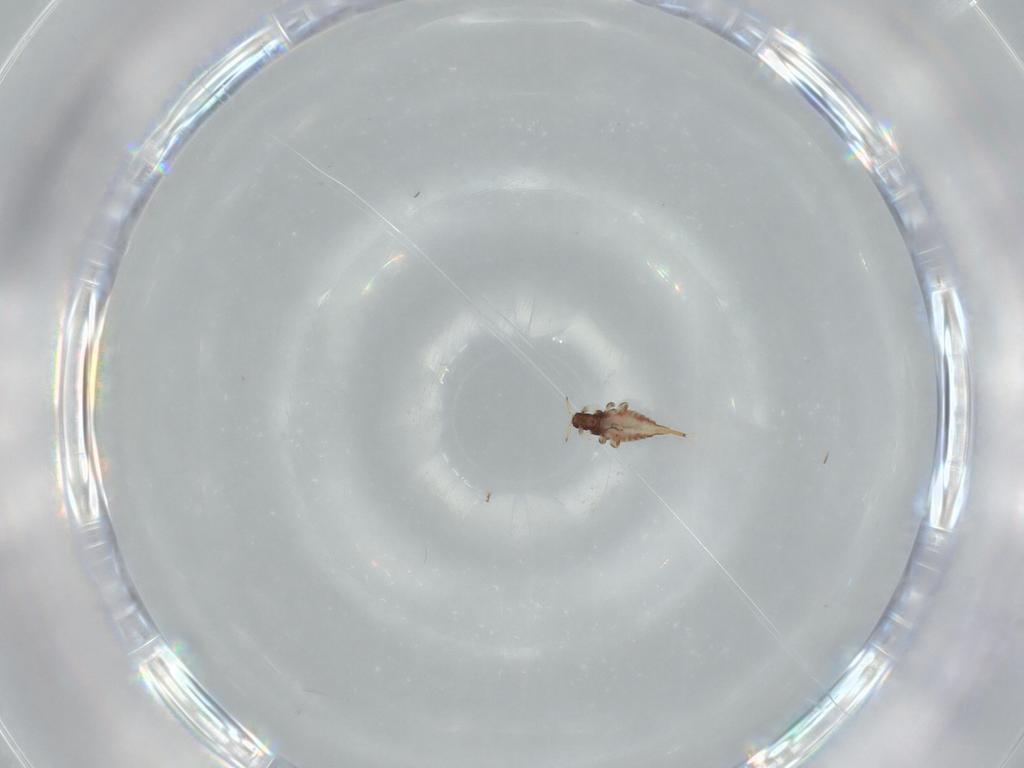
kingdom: Animalia
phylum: Arthropoda
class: Insecta
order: Thysanoptera
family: Phlaeothripidae
